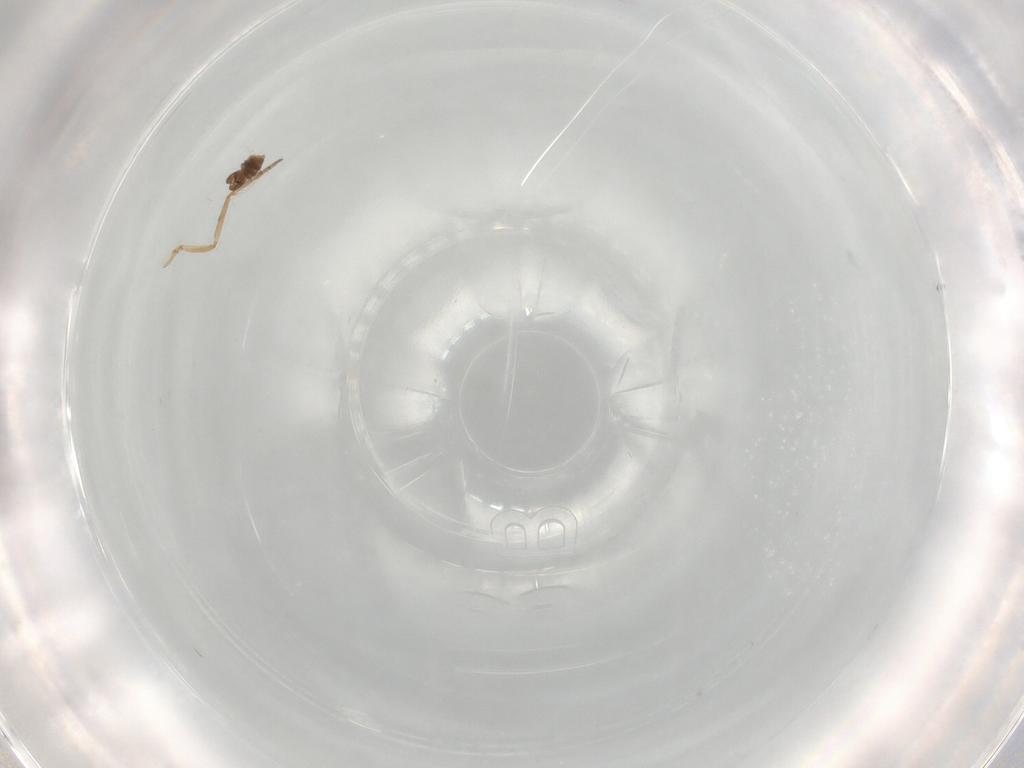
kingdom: Animalia
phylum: Arthropoda
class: Insecta
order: Diptera
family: Ceratopogonidae
